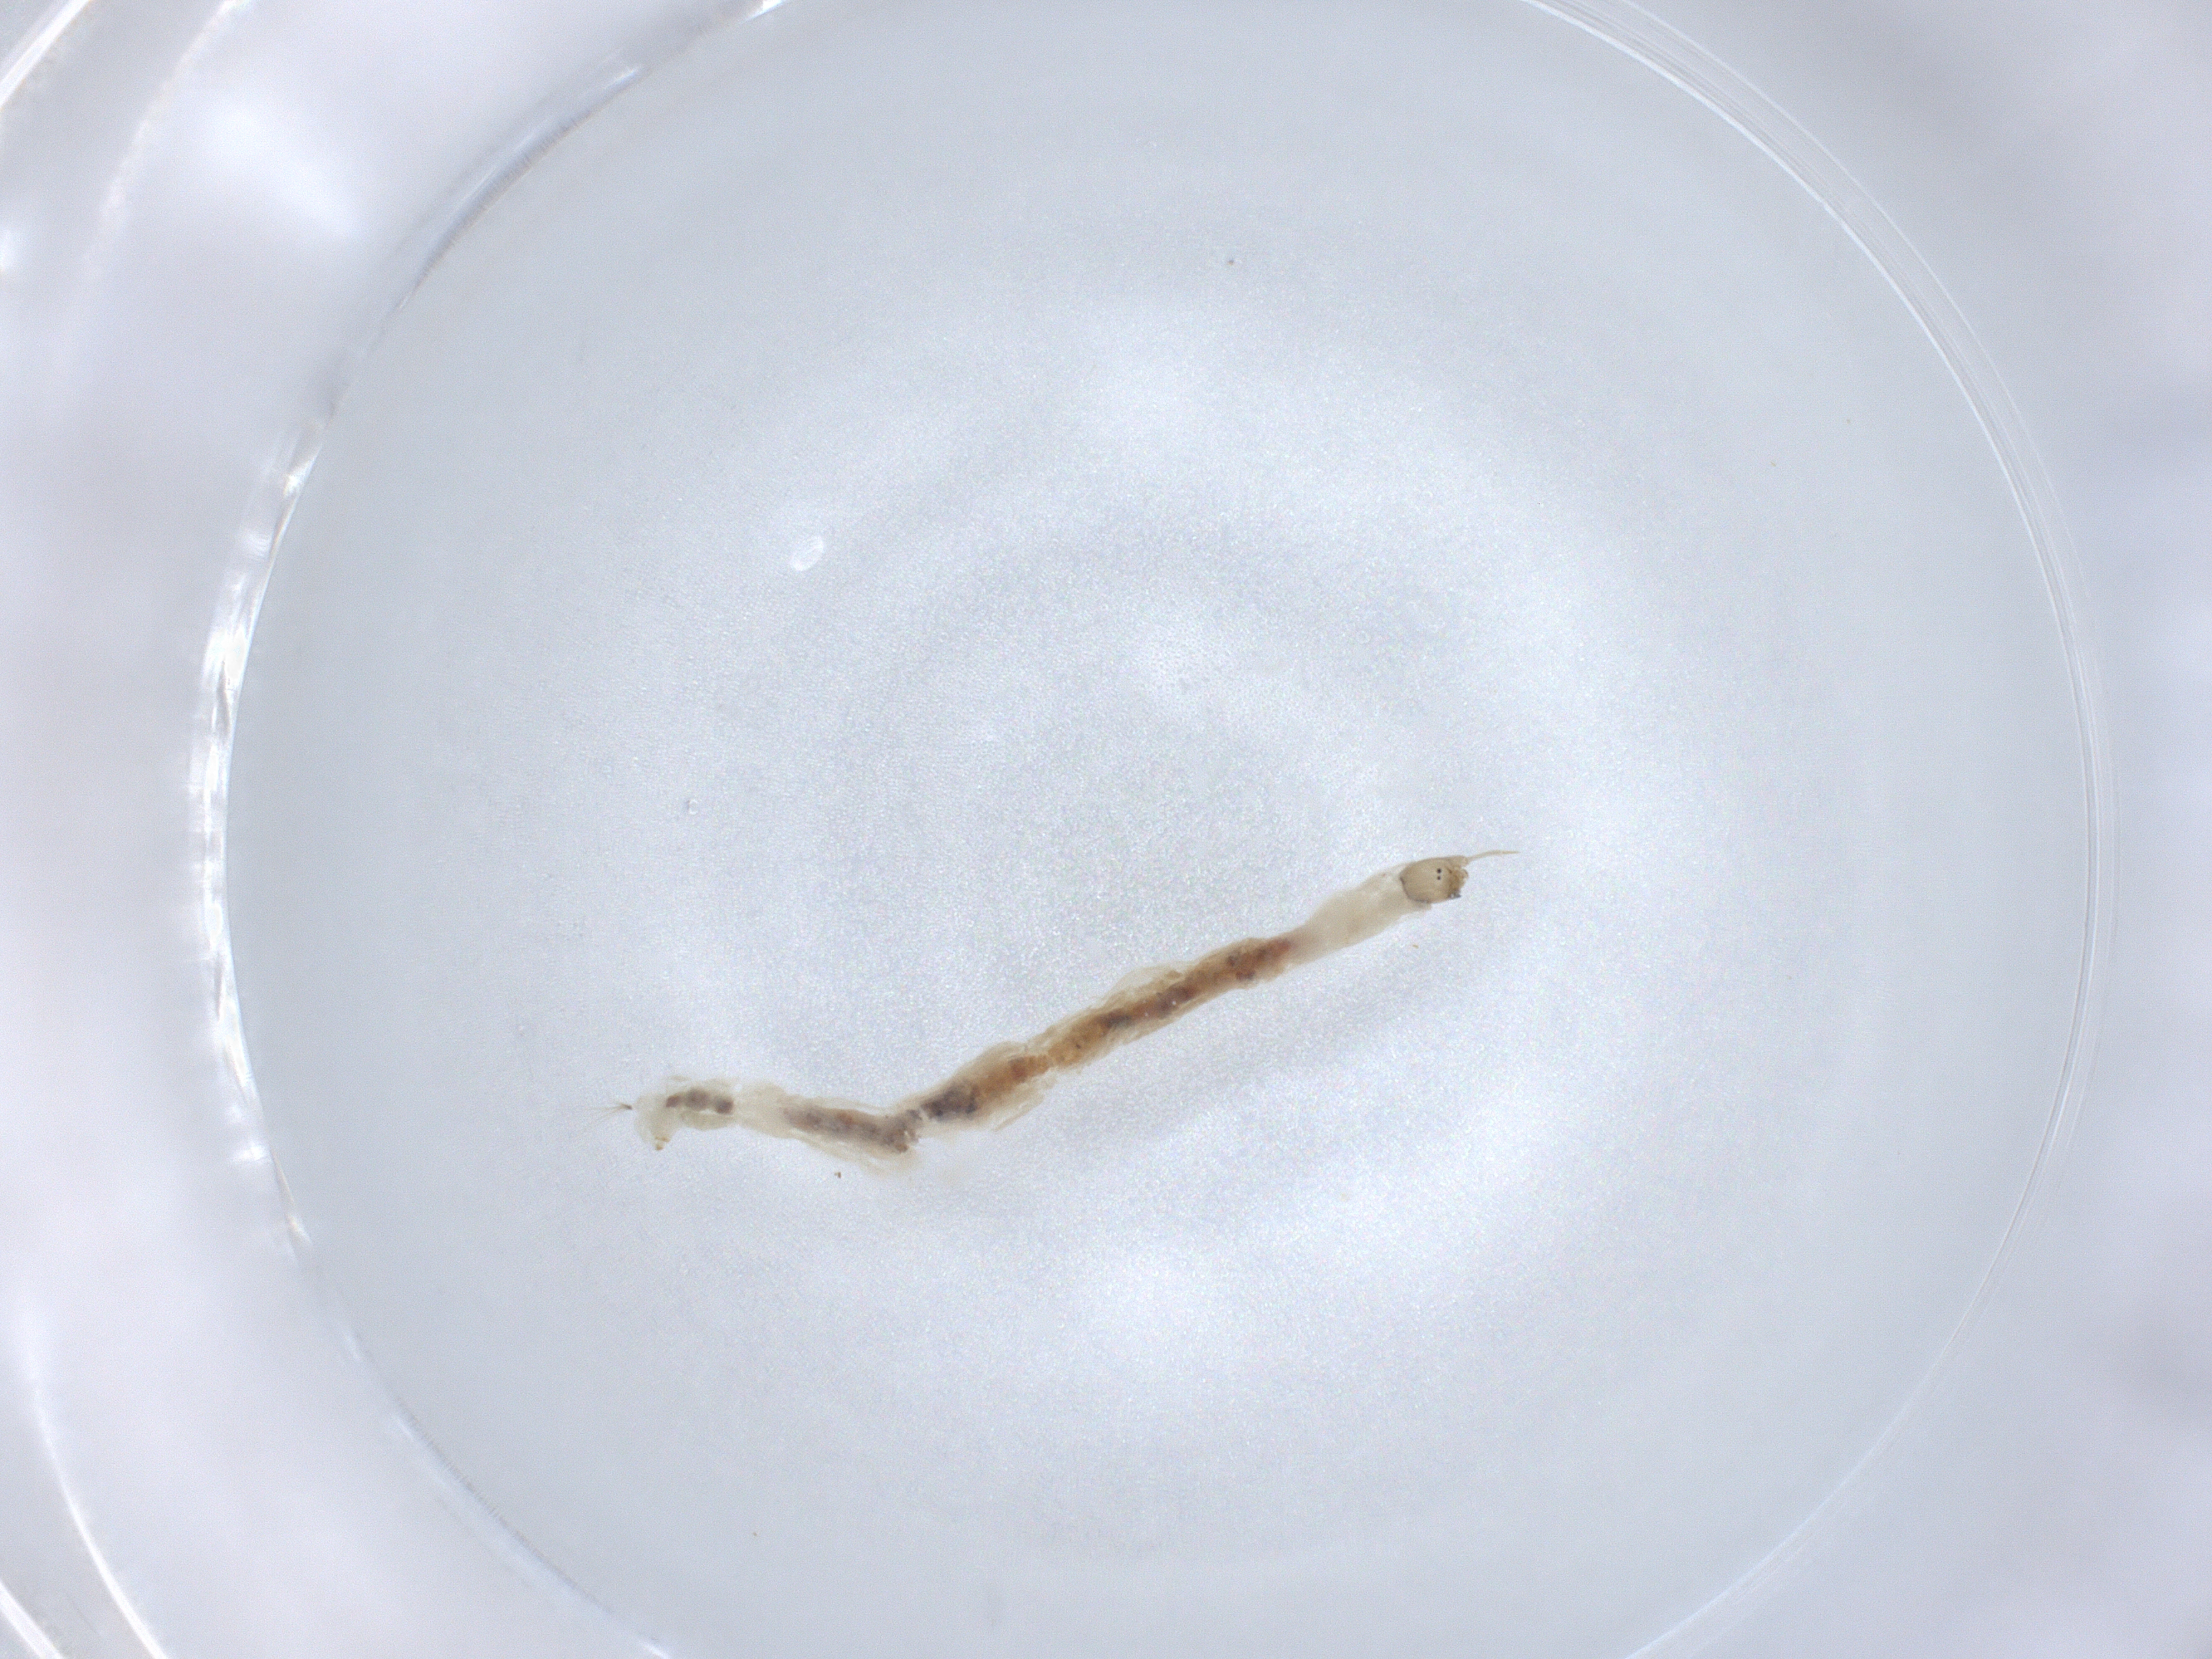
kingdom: Animalia
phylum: Arthropoda
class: Insecta
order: Diptera
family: Chironomidae
